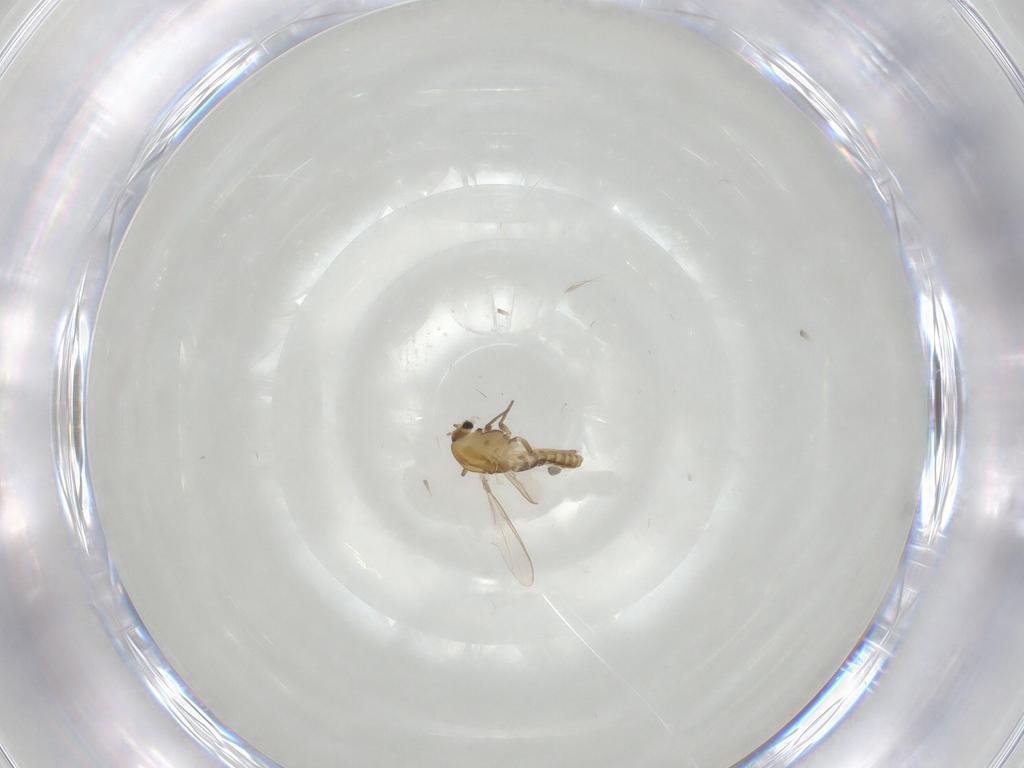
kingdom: Animalia
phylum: Arthropoda
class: Insecta
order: Diptera
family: Chironomidae
